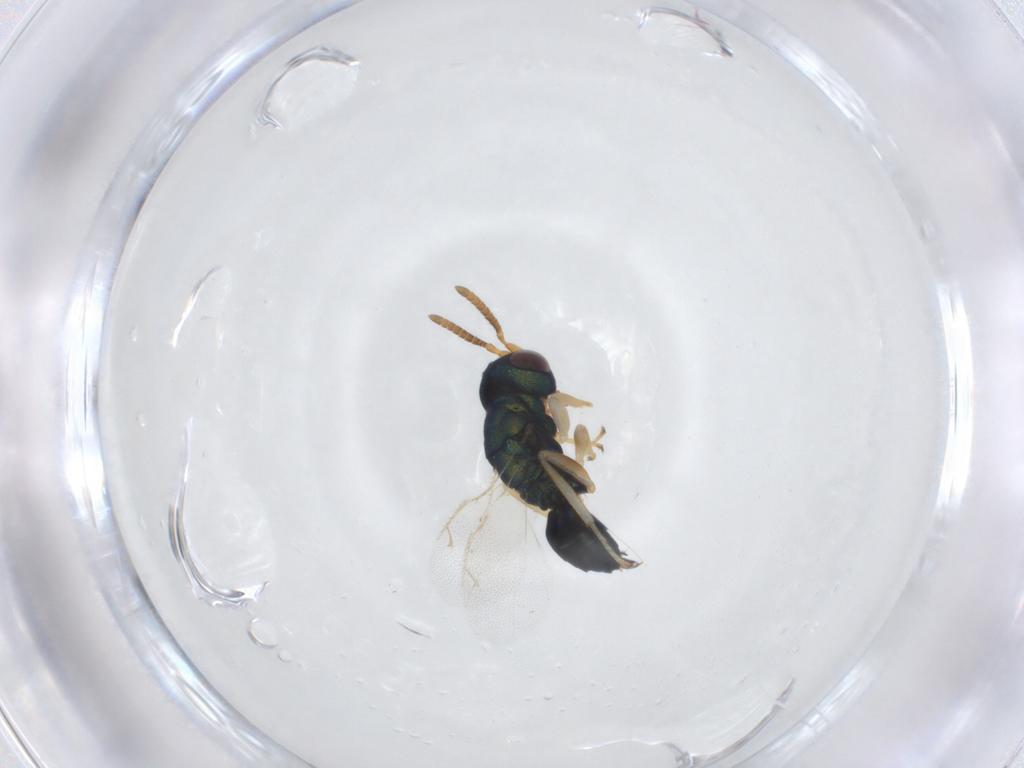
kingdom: Animalia
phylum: Arthropoda
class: Insecta
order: Hymenoptera
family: Pteromalidae
